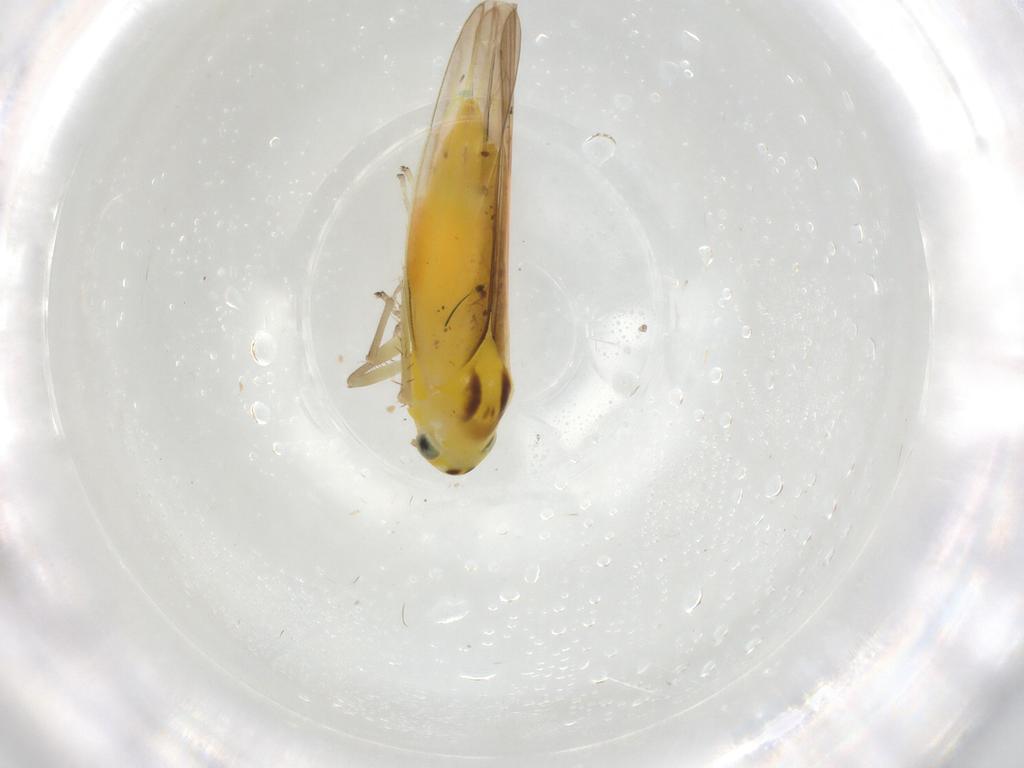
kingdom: Animalia
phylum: Arthropoda
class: Insecta
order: Hemiptera
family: Cicadellidae
